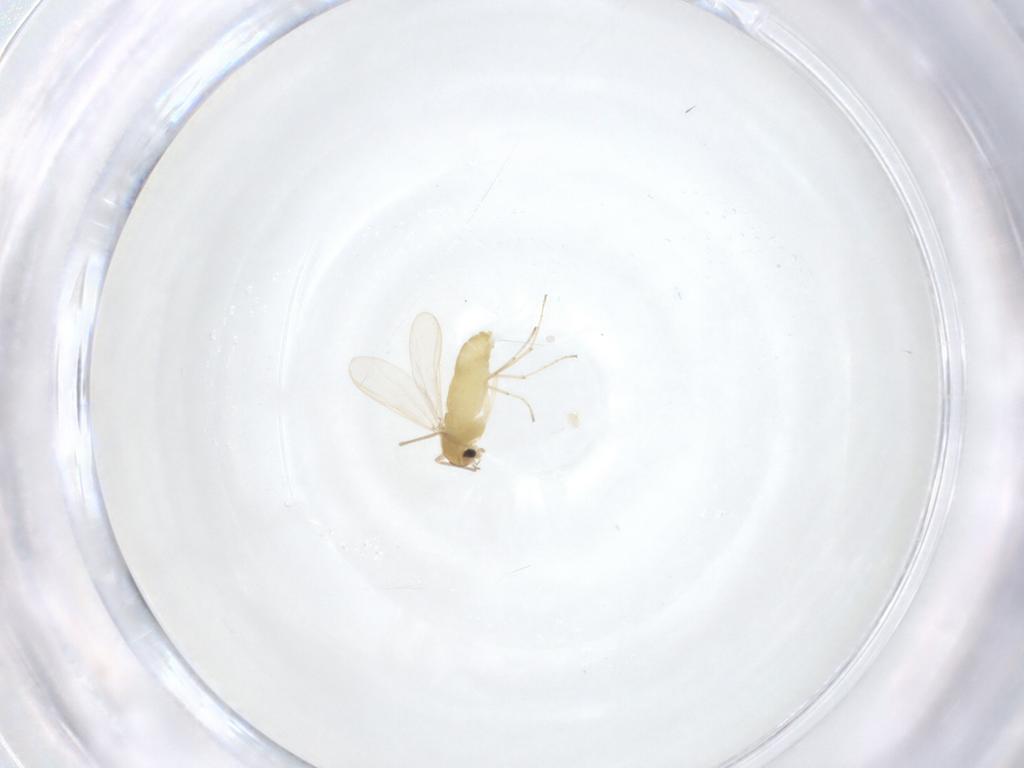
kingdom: Animalia
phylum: Arthropoda
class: Insecta
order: Diptera
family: Chironomidae
